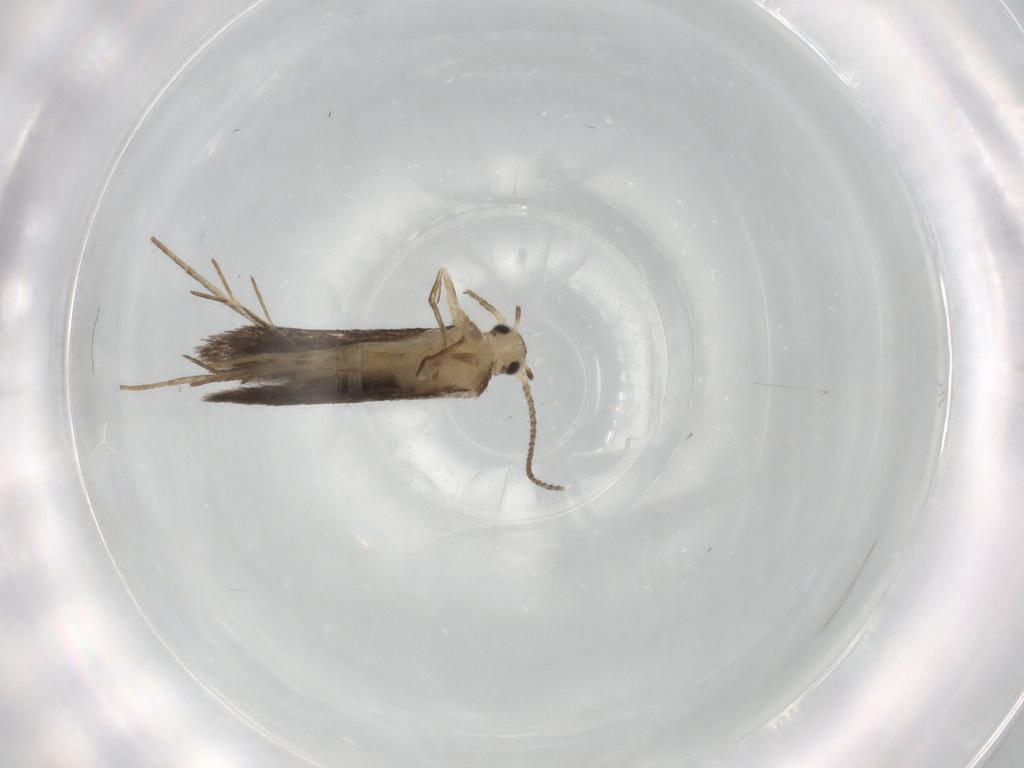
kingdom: Animalia
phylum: Arthropoda
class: Insecta
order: Lepidoptera
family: Schreckensteiniidae
